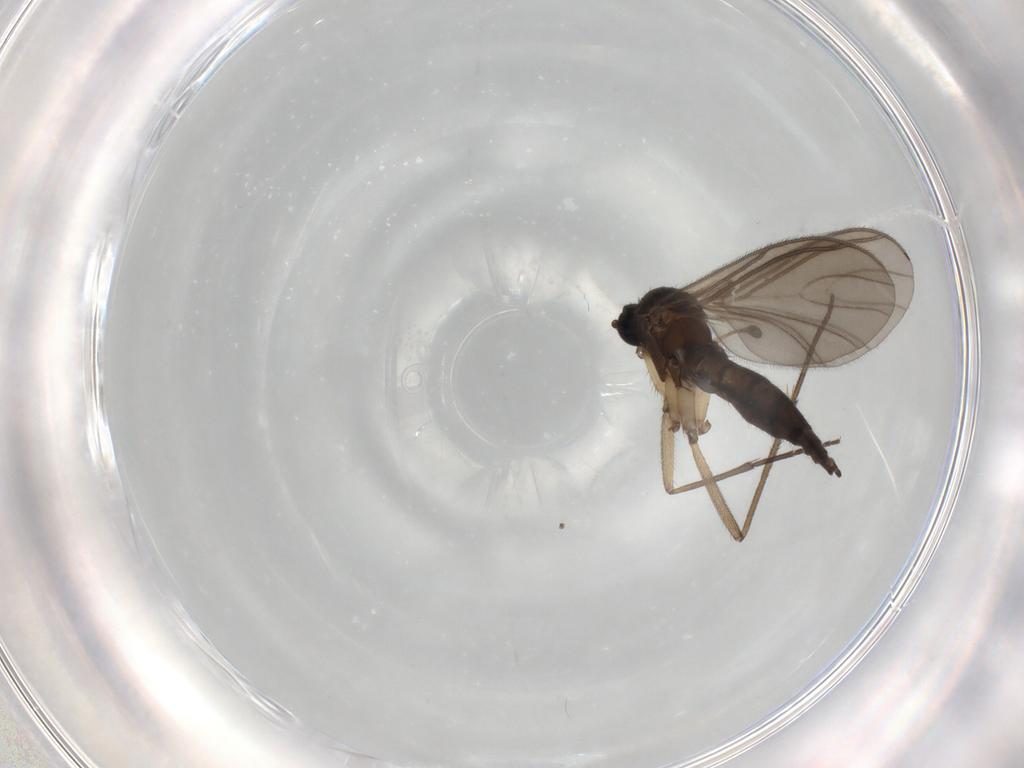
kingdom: Animalia
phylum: Arthropoda
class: Insecta
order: Diptera
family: Sciaridae
